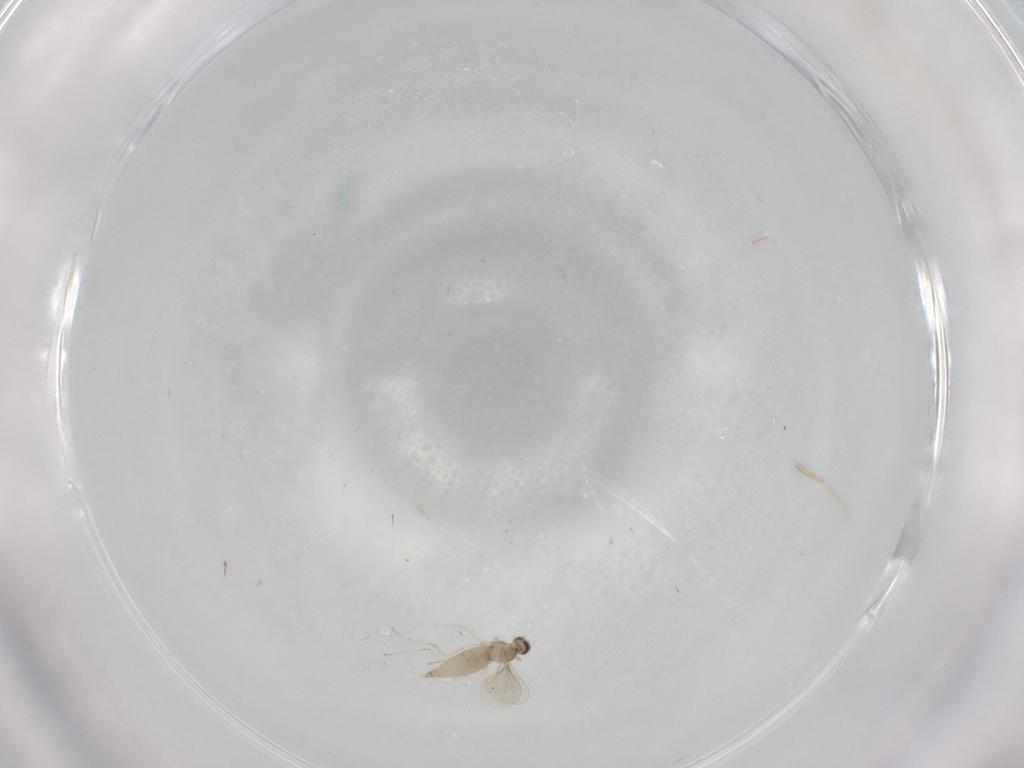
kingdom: Animalia
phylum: Arthropoda
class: Insecta
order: Diptera
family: Cecidomyiidae
